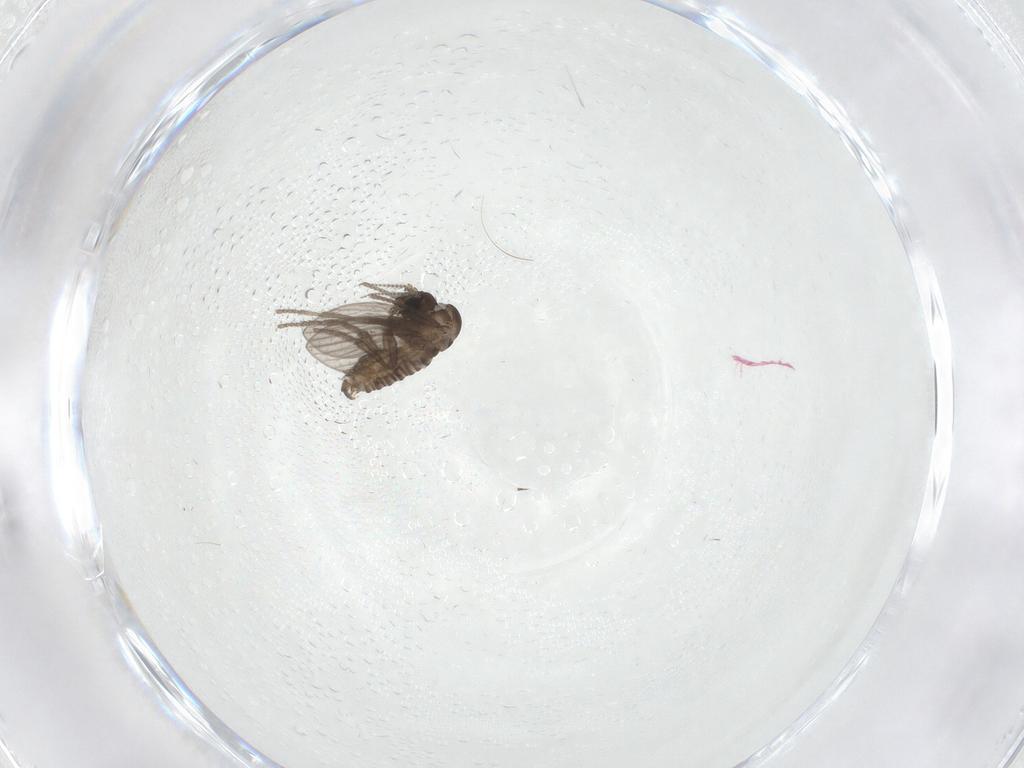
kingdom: Animalia
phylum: Arthropoda
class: Insecta
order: Diptera
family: Psychodidae
